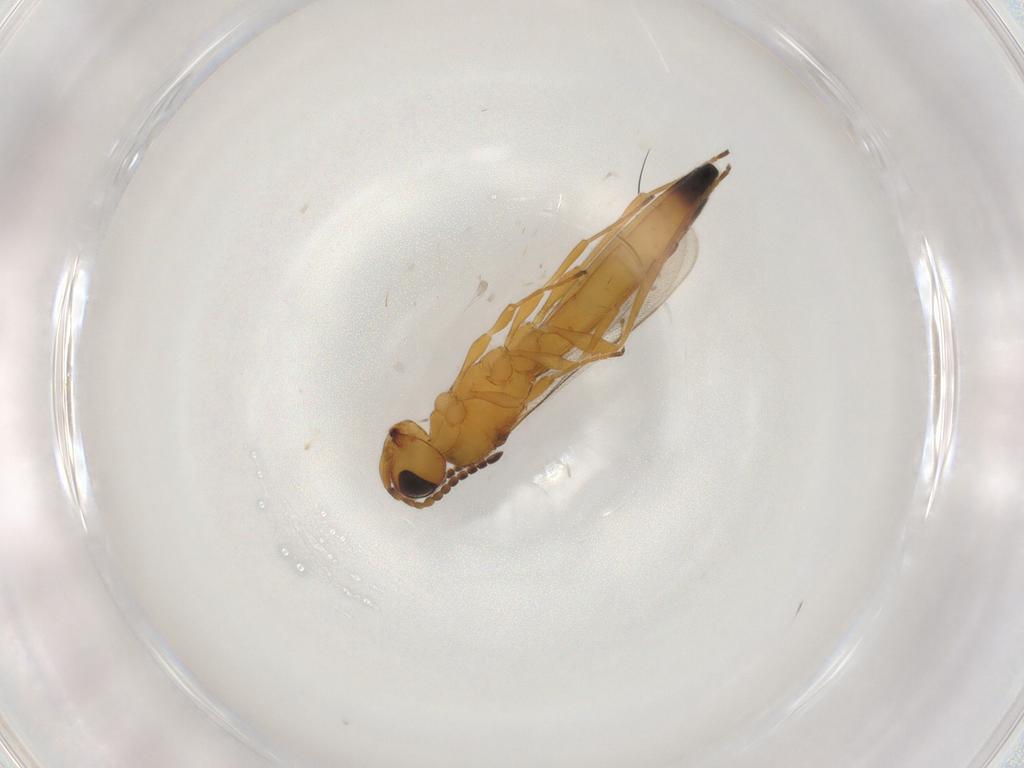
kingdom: Animalia
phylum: Arthropoda
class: Insecta
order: Hymenoptera
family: Scelionidae
